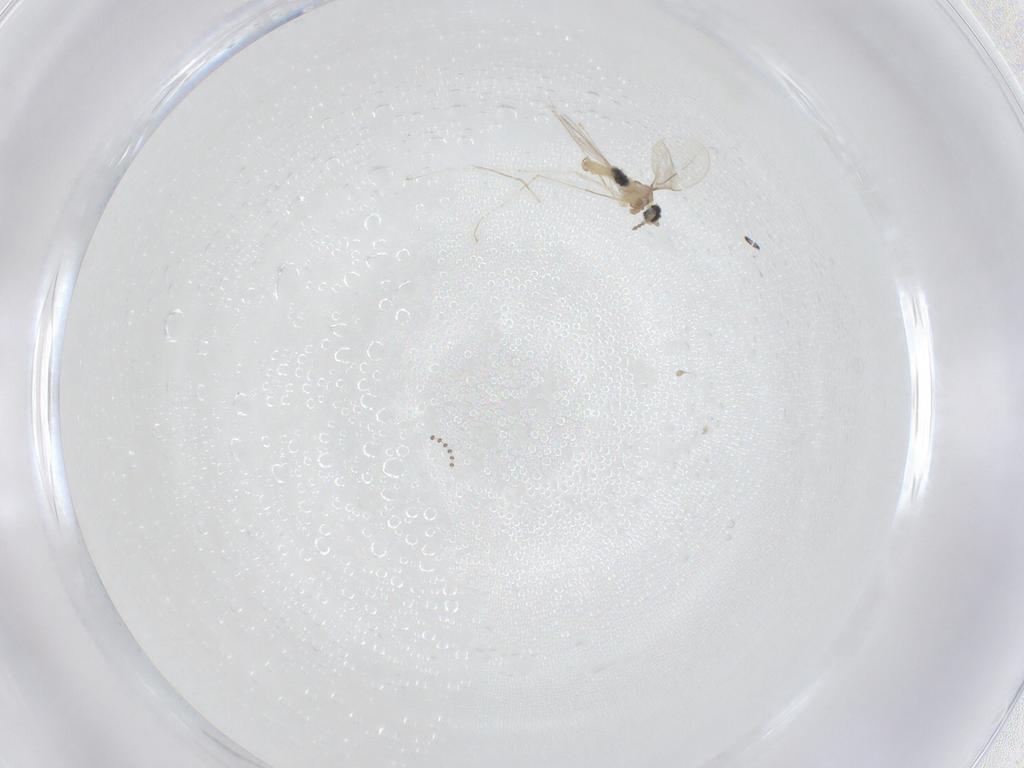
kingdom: Animalia
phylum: Arthropoda
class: Insecta
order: Diptera
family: Cecidomyiidae
